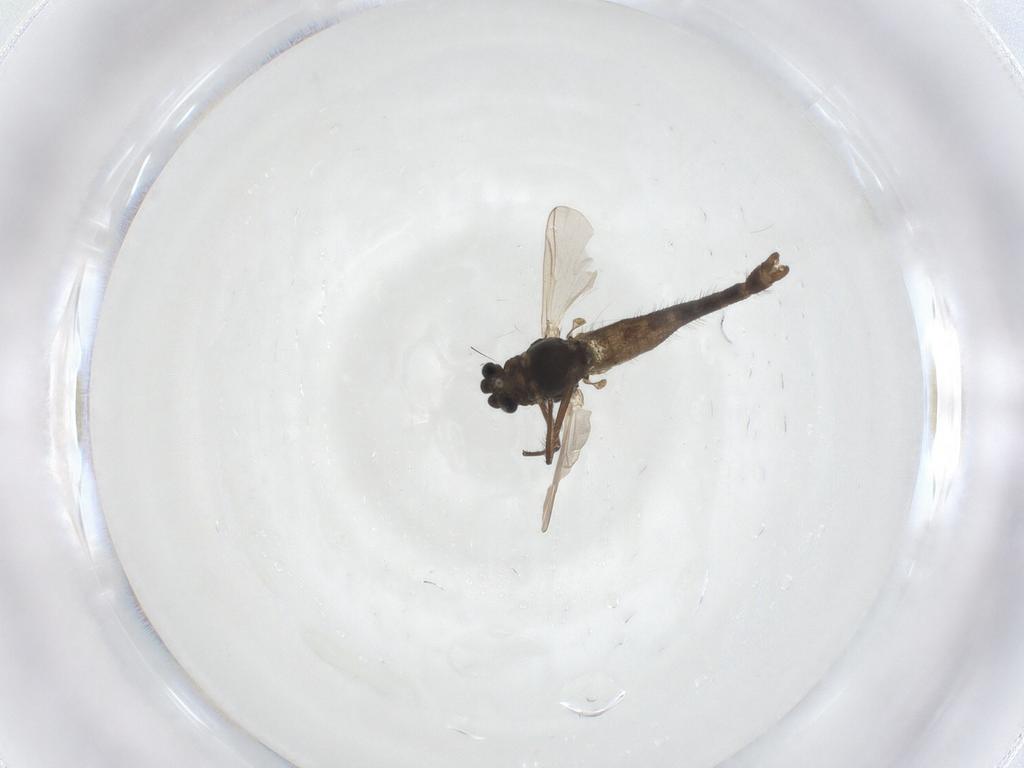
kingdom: Animalia
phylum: Arthropoda
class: Insecta
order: Diptera
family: Chironomidae
